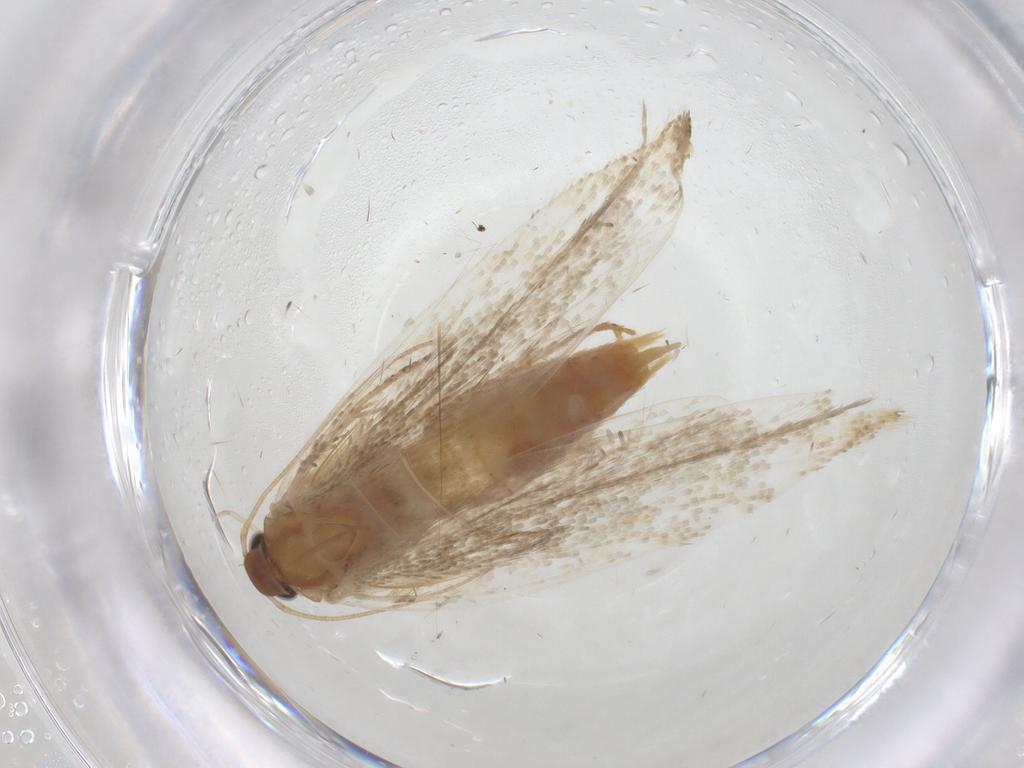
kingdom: Animalia
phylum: Arthropoda
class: Insecta
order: Lepidoptera
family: Crambidae
